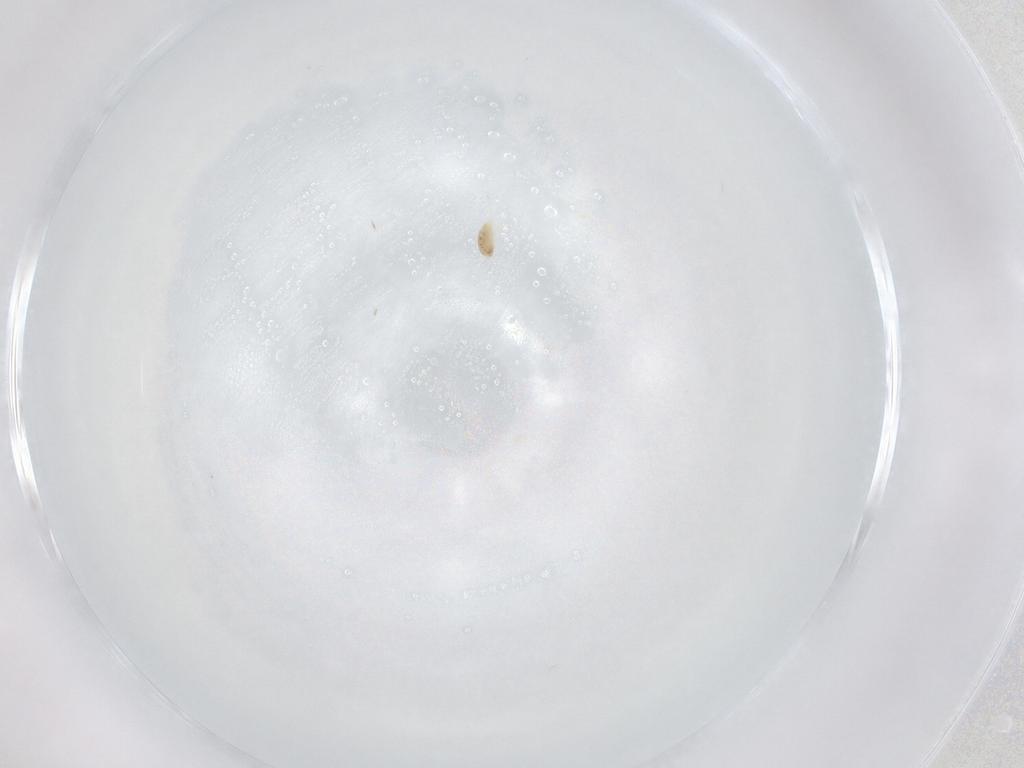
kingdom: Animalia
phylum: Arthropoda
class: Arachnida
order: Trombidiformes
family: Eupodidae
